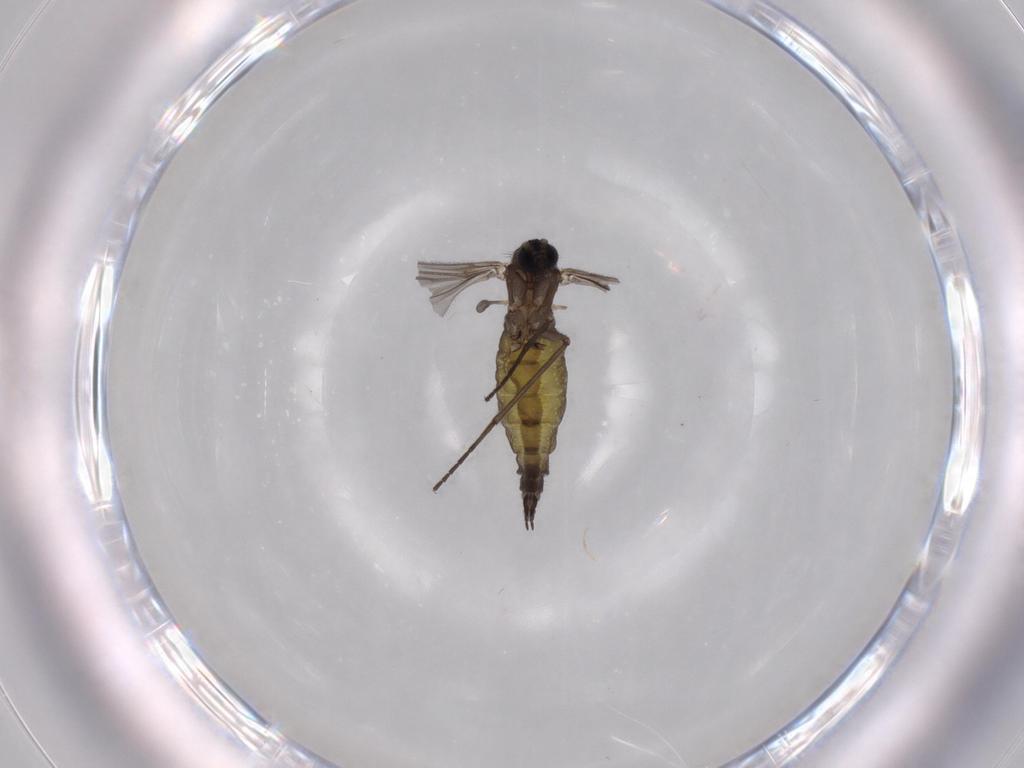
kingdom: Animalia
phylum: Arthropoda
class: Insecta
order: Diptera
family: Sciaridae
